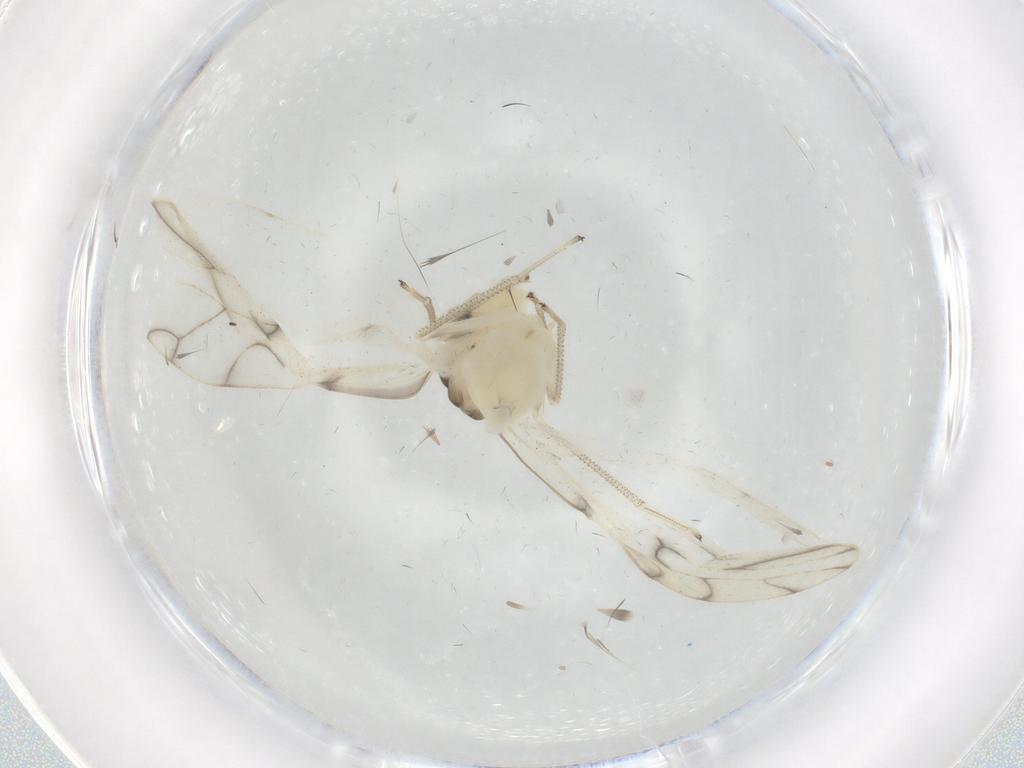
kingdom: Animalia
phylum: Arthropoda
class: Insecta
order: Psocodea
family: Caeciliusidae
